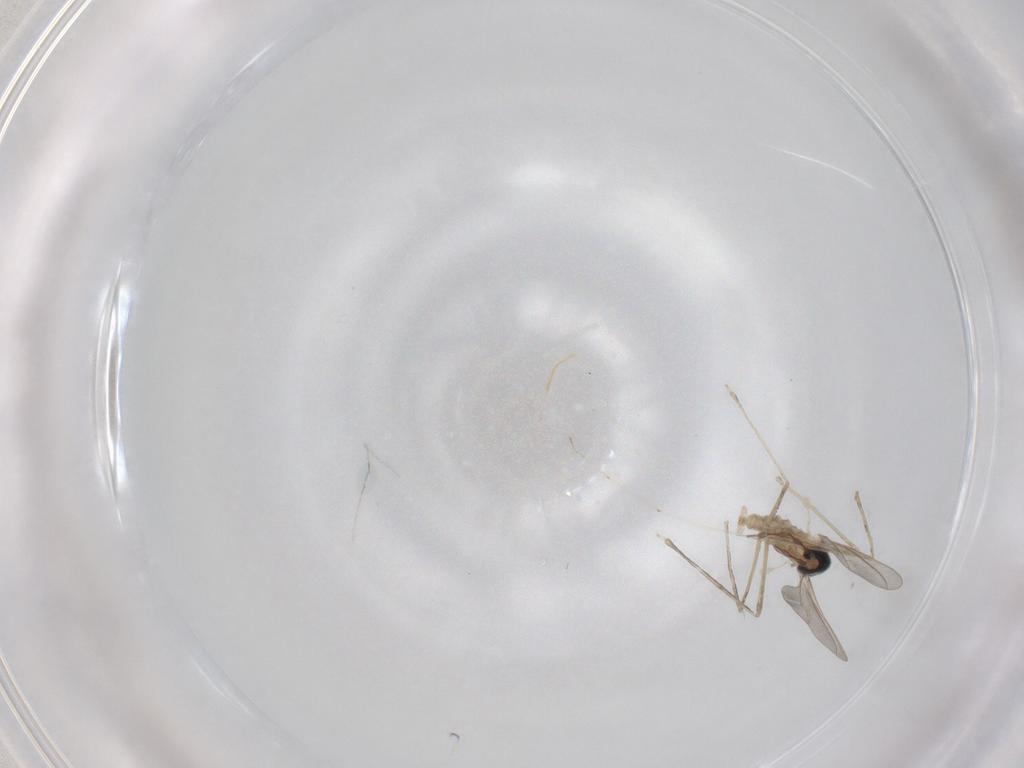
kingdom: Animalia
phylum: Arthropoda
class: Insecta
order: Diptera
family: Cecidomyiidae
